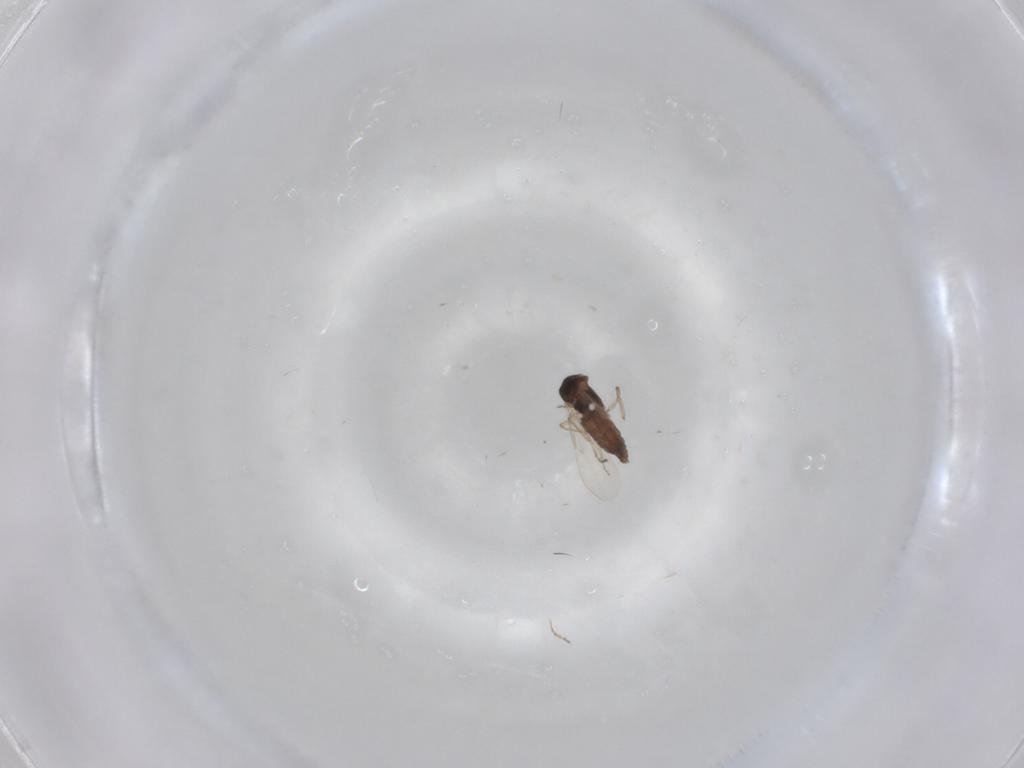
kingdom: Animalia
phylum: Arthropoda
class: Insecta
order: Diptera
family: Ceratopogonidae
